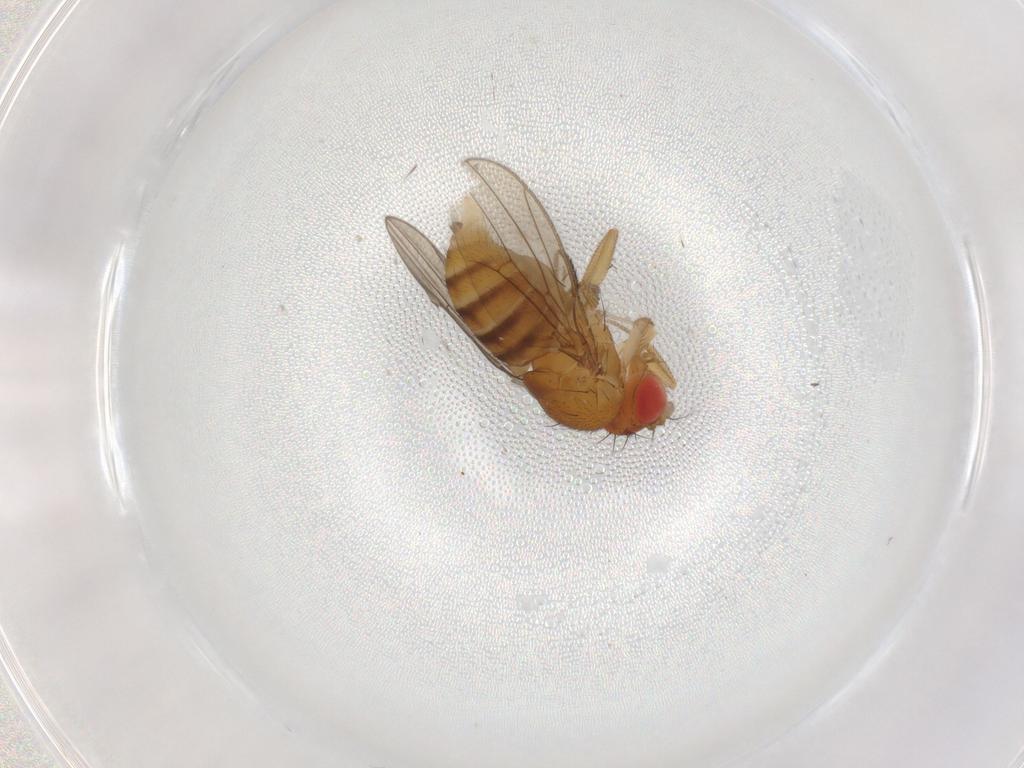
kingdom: Animalia
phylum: Arthropoda
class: Insecta
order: Diptera
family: Drosophilidae
